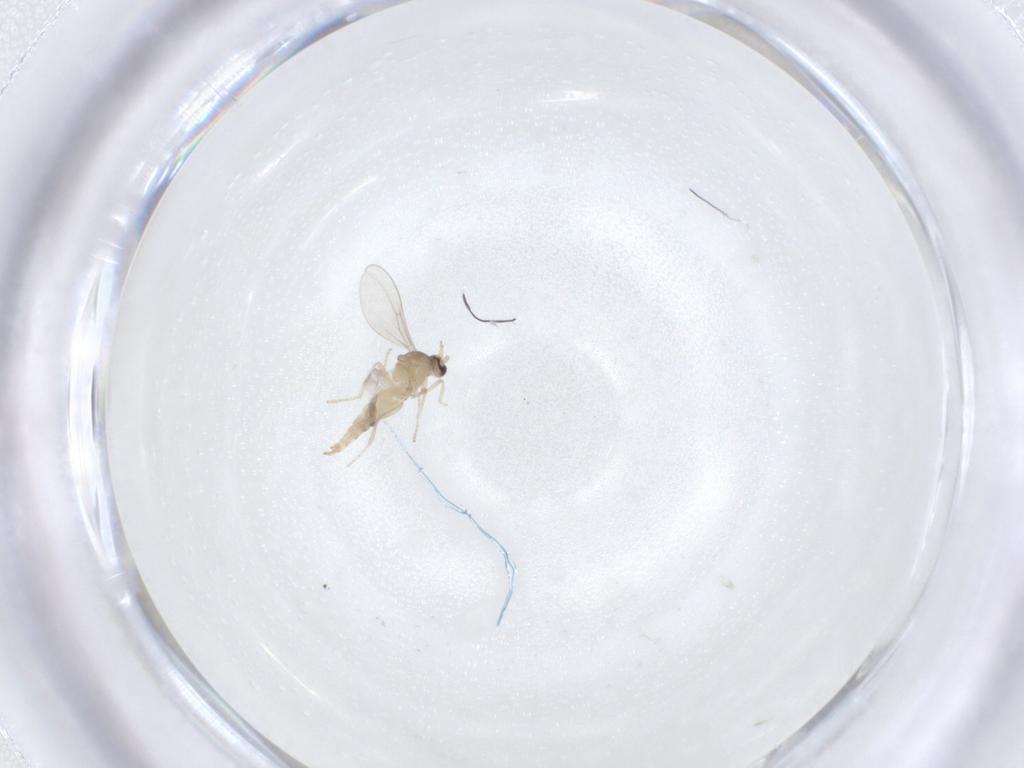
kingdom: Animalia
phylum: Arthropoda
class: Insecta
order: Diptera
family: Cecidomyiidae
